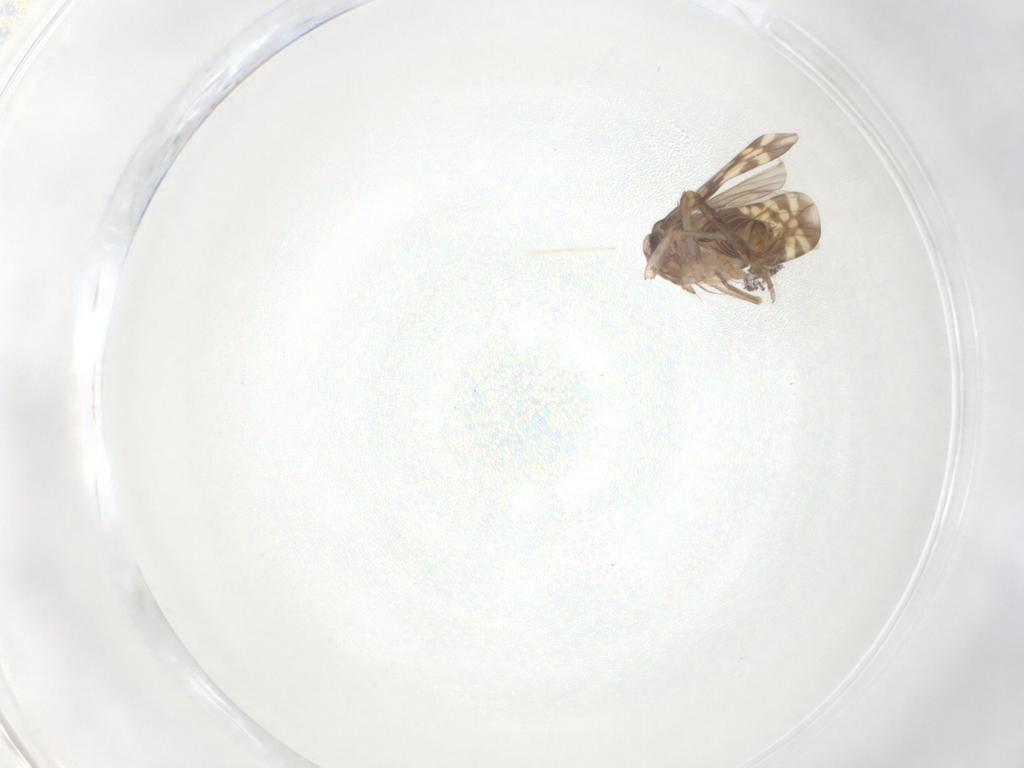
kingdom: Animalia
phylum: Arthropoda
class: Insecta
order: Hemiptera
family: Cicadellidae
